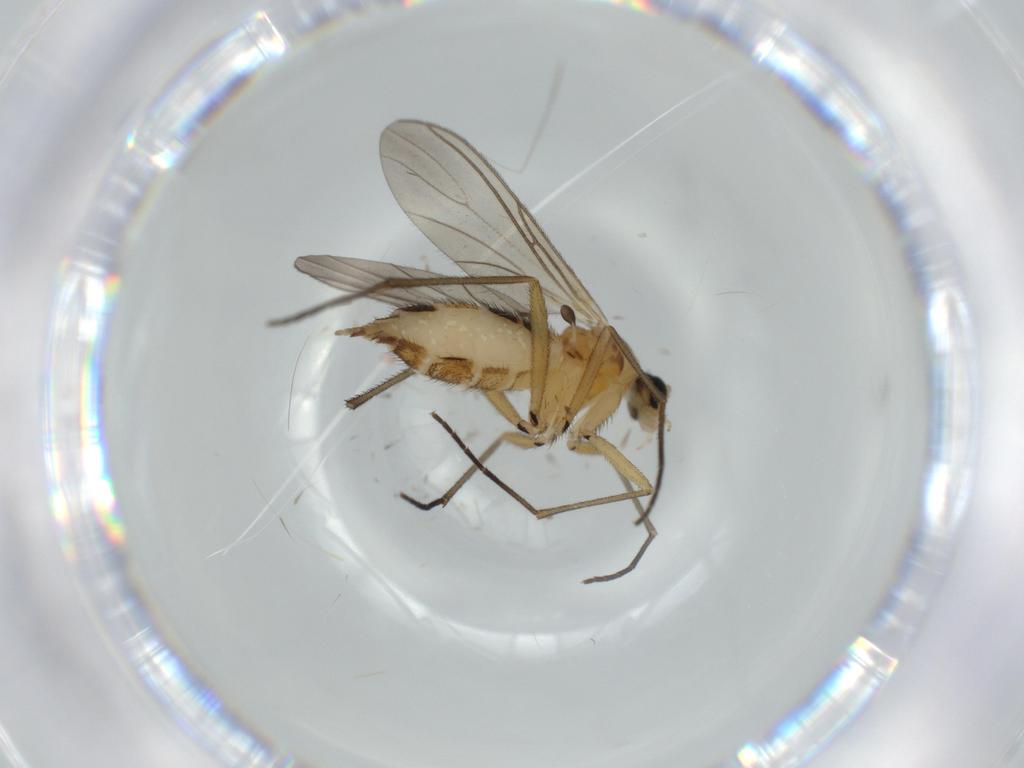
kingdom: Animalia
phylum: Arthropoda
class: Insecta
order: Diptera
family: Sciaridae
